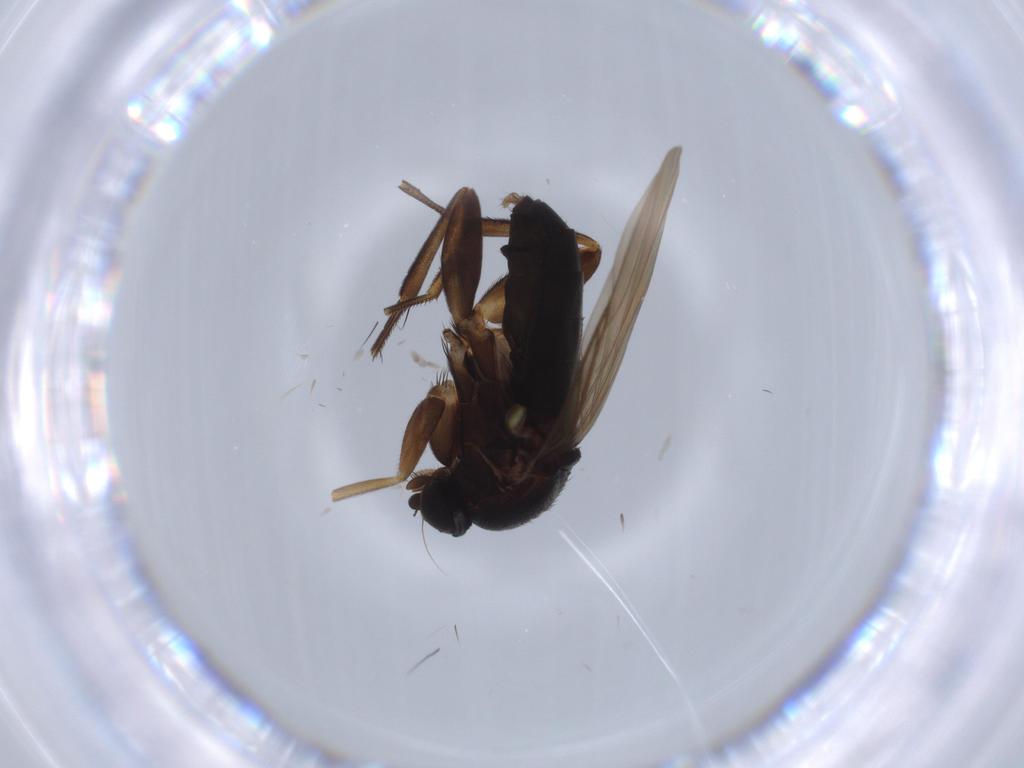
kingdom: Animalia
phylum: Arthropoda
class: Insecta
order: Diptera
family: Phoridae
